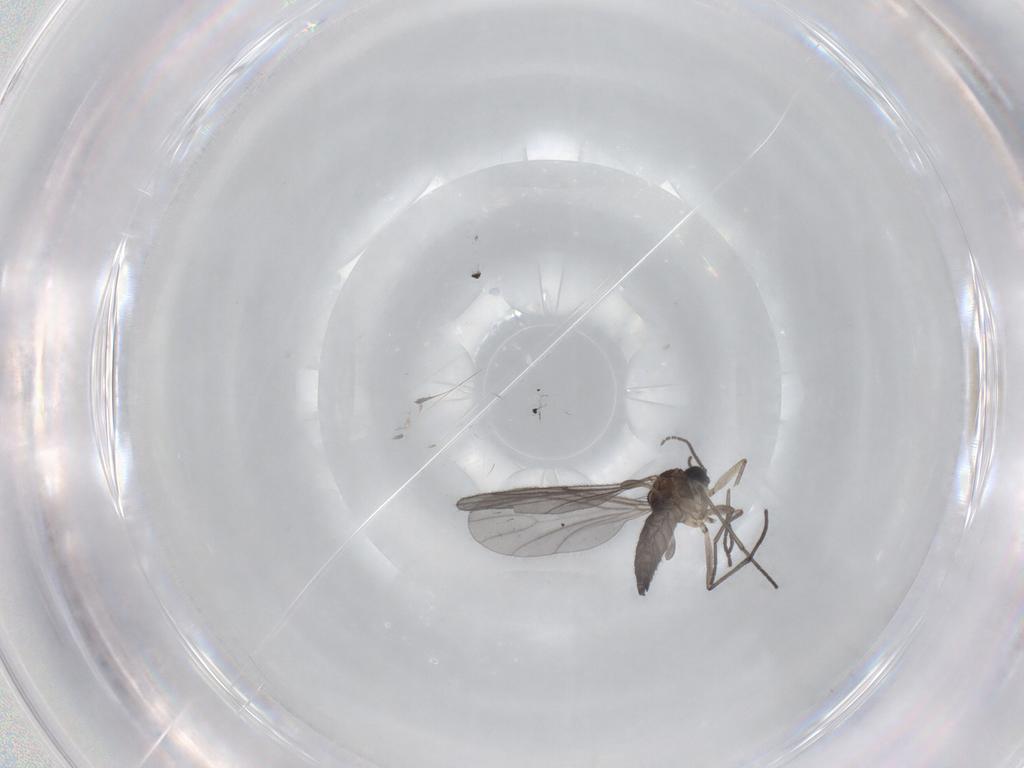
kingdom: Animalia
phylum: Arthropoda
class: Insecta
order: Diptera
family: Sciaridae
